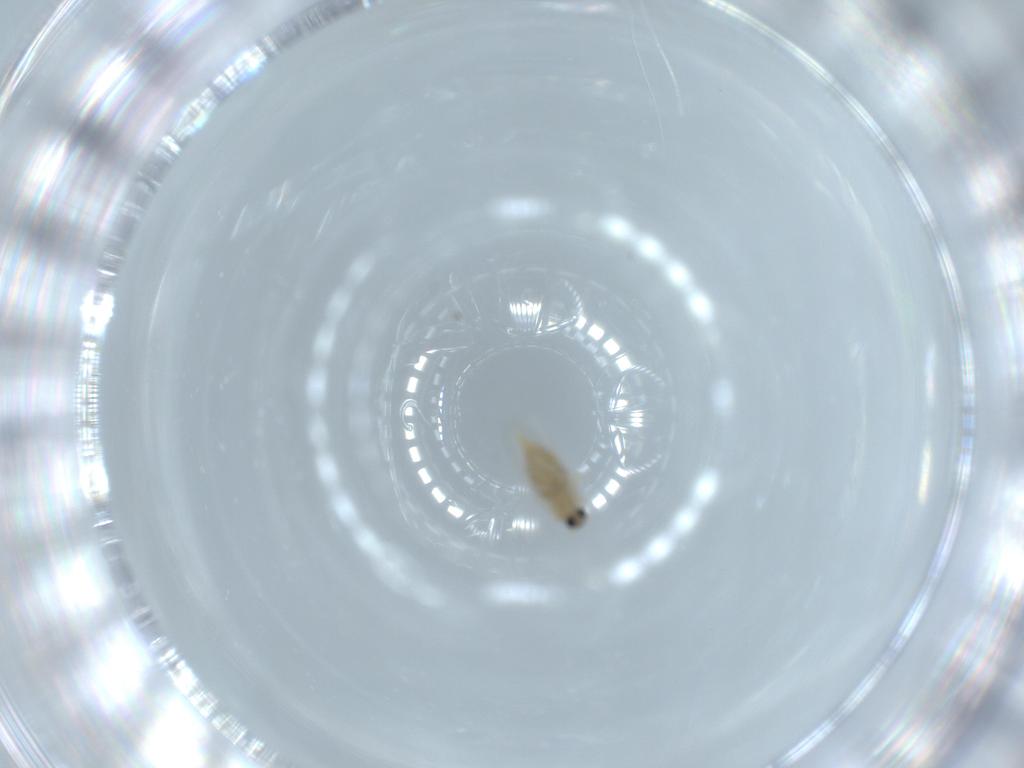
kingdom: Animalia
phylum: Arthropoda
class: Insecta
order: Diptera
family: Cecidomyiidae
